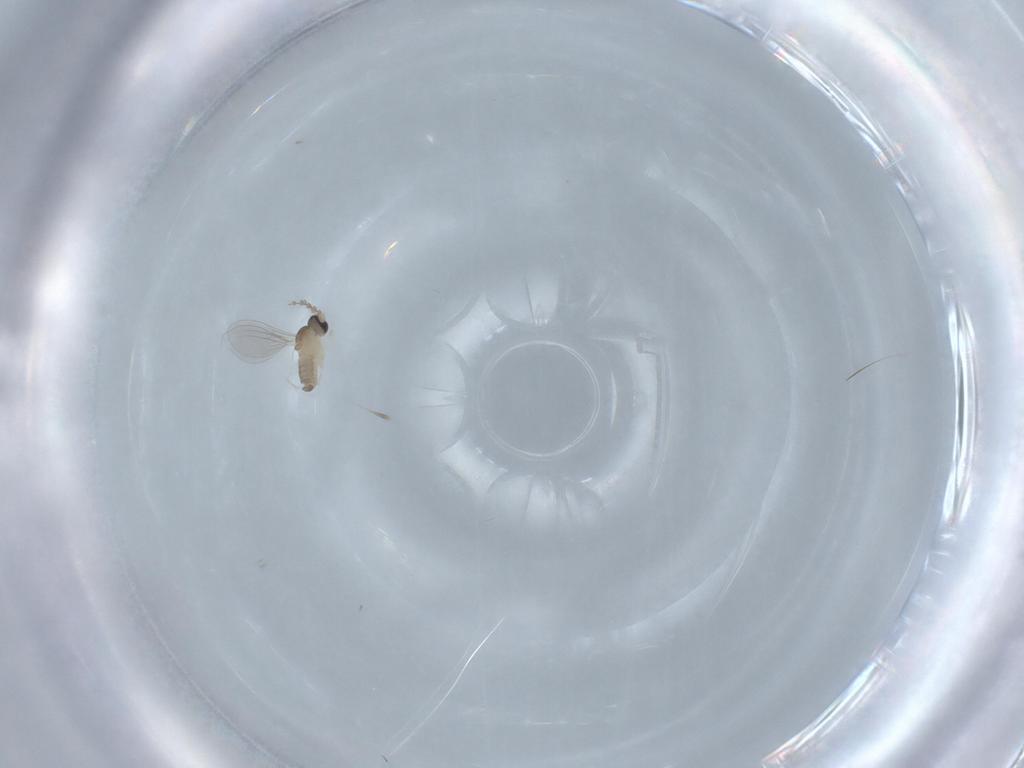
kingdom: Animalia
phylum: Arthropoda
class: Insecta
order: Diptera
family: Cecidomyiidae
